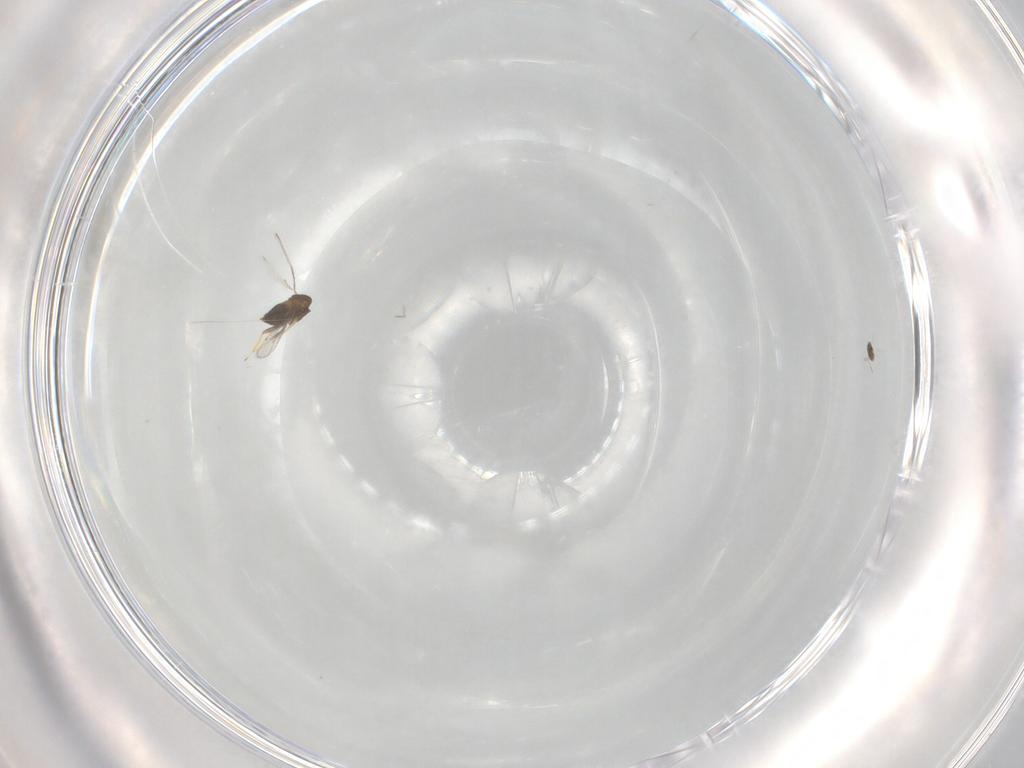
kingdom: Animalia
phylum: Arthropoda
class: Insecta
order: Hymenoptera
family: Trichogrammatidae
